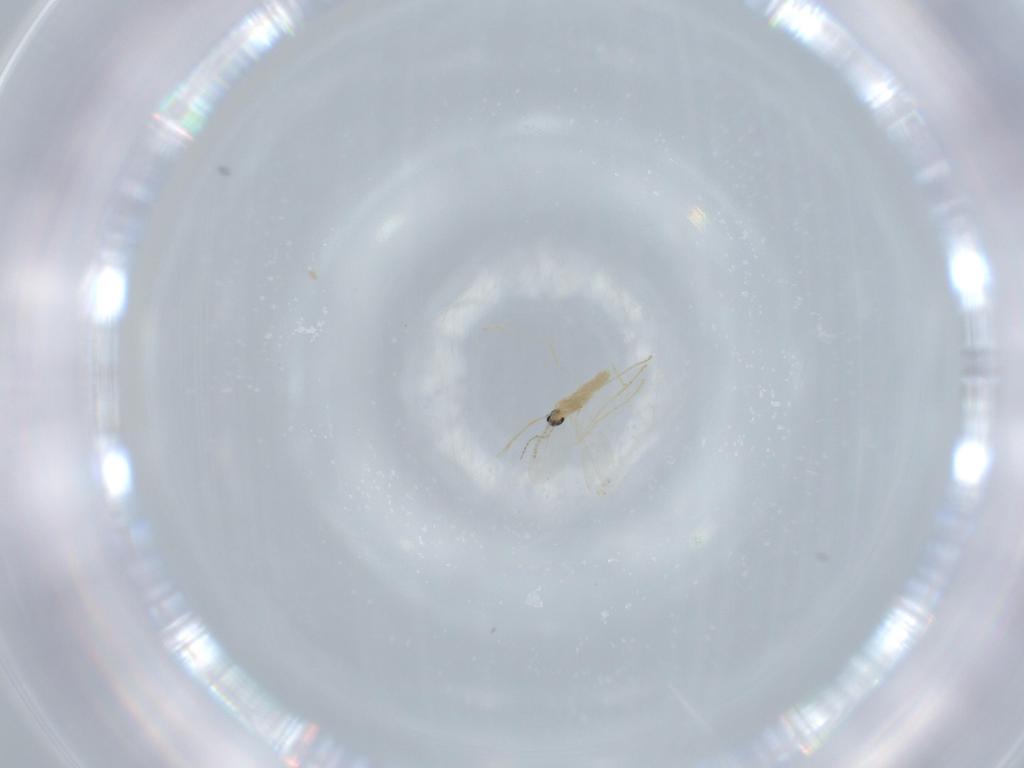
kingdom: Animalia
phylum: Arthropoda
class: Insecta
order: Diptera
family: Cecidomyiidae
